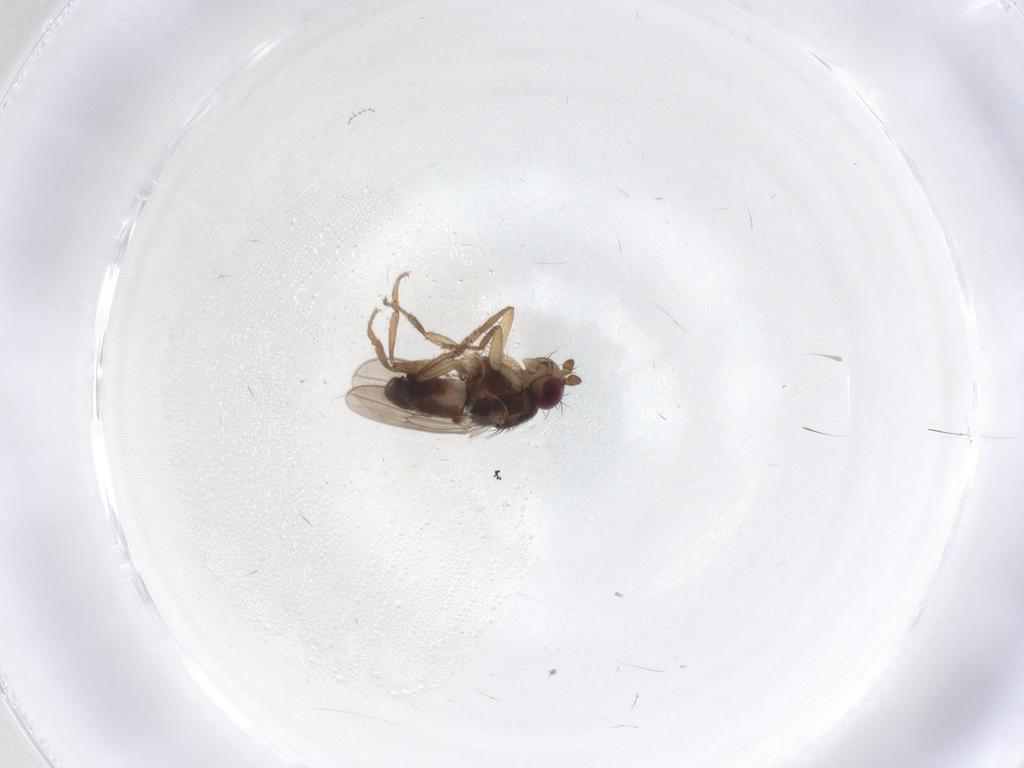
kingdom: Animalia
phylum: Arthropoda
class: Insecta
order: Diptera
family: Sphaeroceridae
